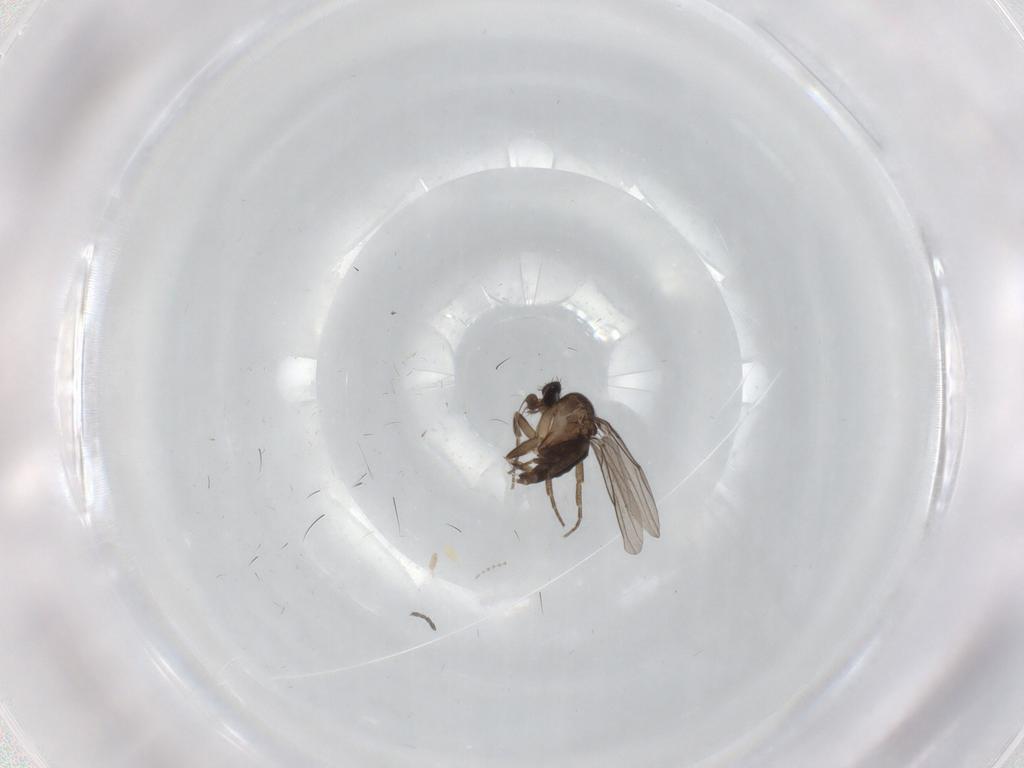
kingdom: Animalia
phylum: Arthropoda
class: Insecta
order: Diptera
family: Sciaridae
